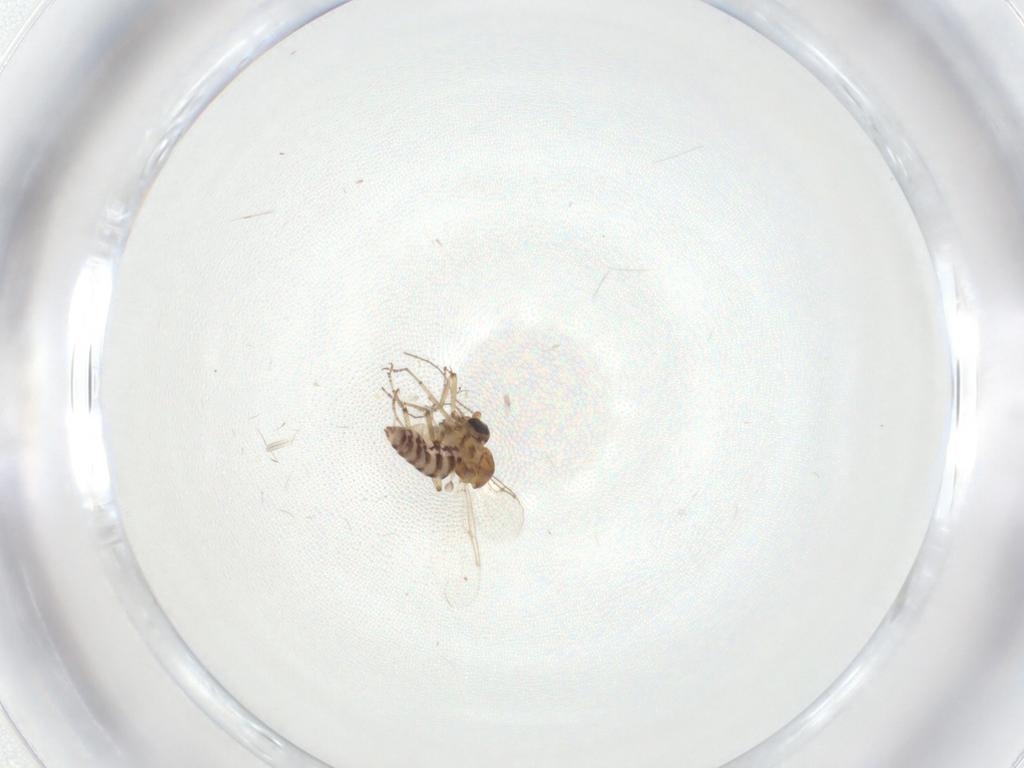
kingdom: Animalia
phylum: Arthropoda
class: Insecta
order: Diptera
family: Ceratopogonidae
